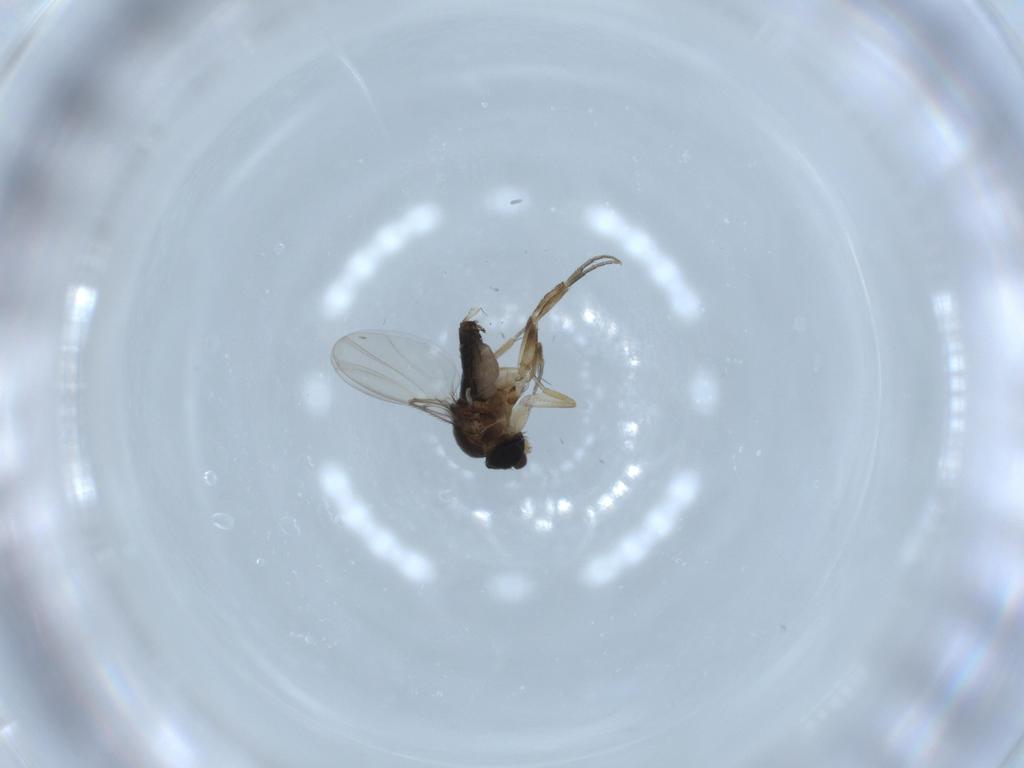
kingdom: Animalia
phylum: Arthropoda
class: Insecta
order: Diptera
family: Phoridae
